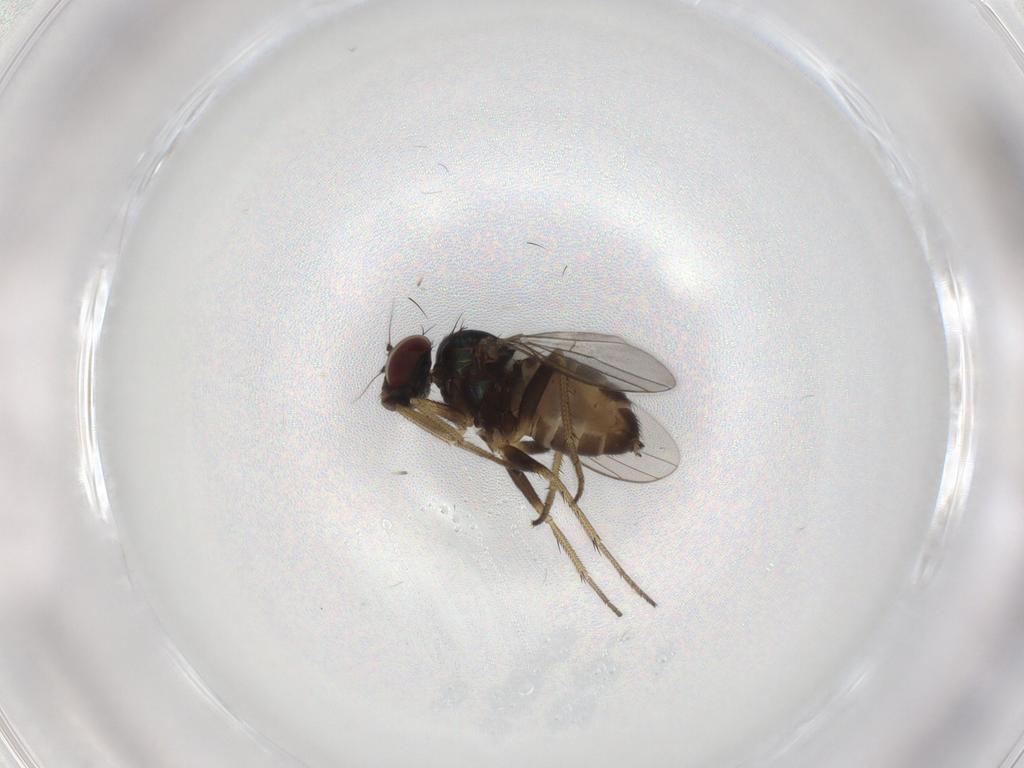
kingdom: Animalia
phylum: Arthropoda
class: Insecta
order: Diptera
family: Dolichopodidae
